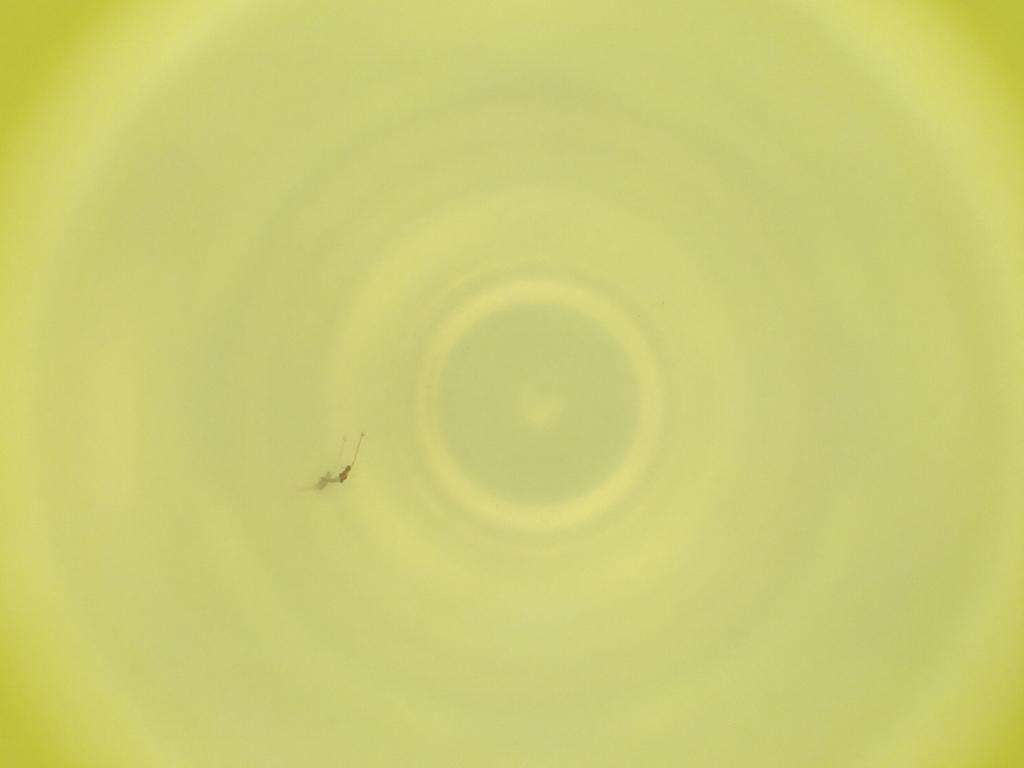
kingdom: Animalia
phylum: Arthropoda
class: Insecta
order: Diptera
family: Cecidomyiidae
